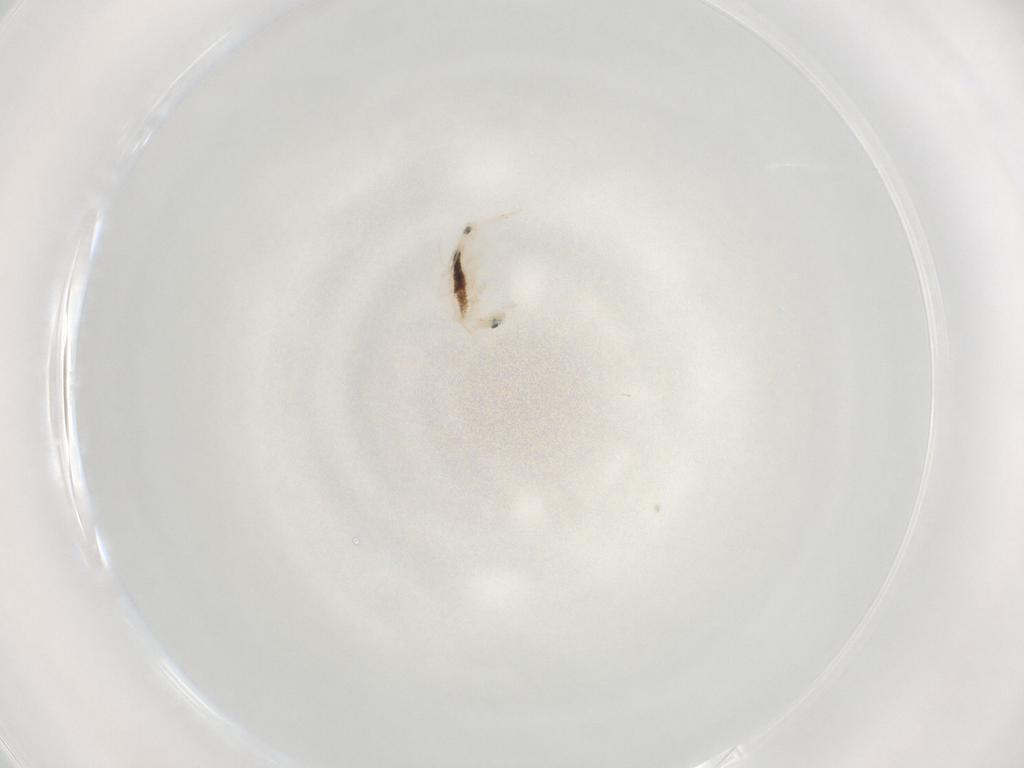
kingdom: Animalia
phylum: Arthropoda
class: Collembola
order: Entomobryomorpha
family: Entomobryidae
